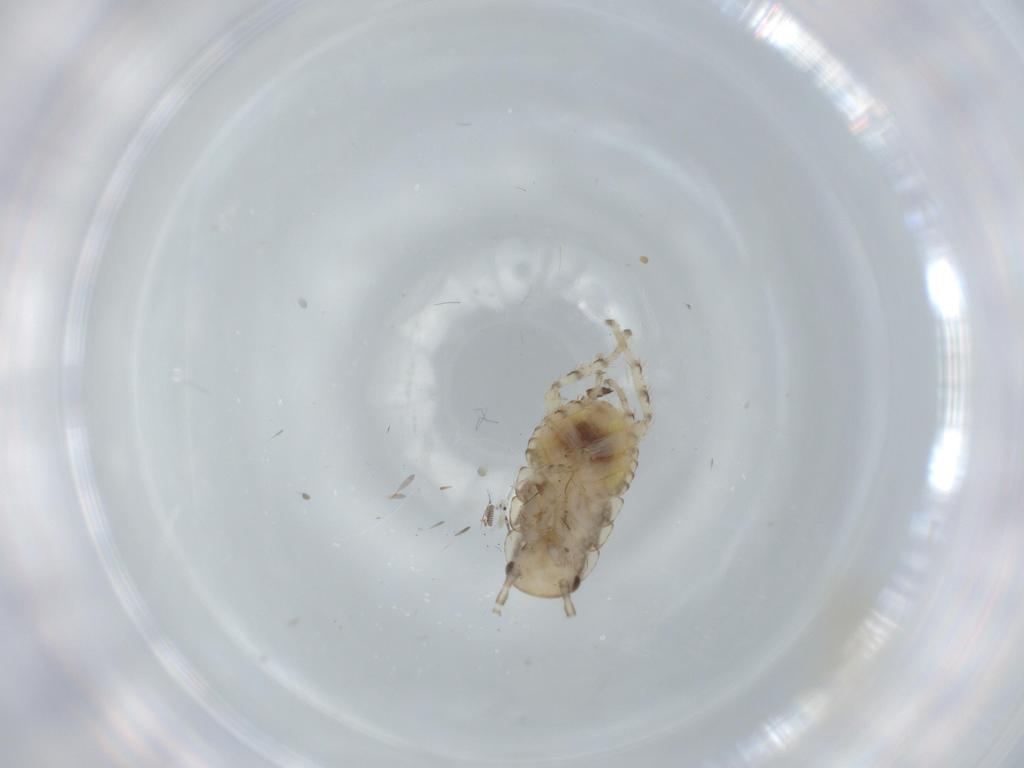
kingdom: Animalia
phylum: Arthropoda
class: Insecta
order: Blattodea
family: Ectobiidae
